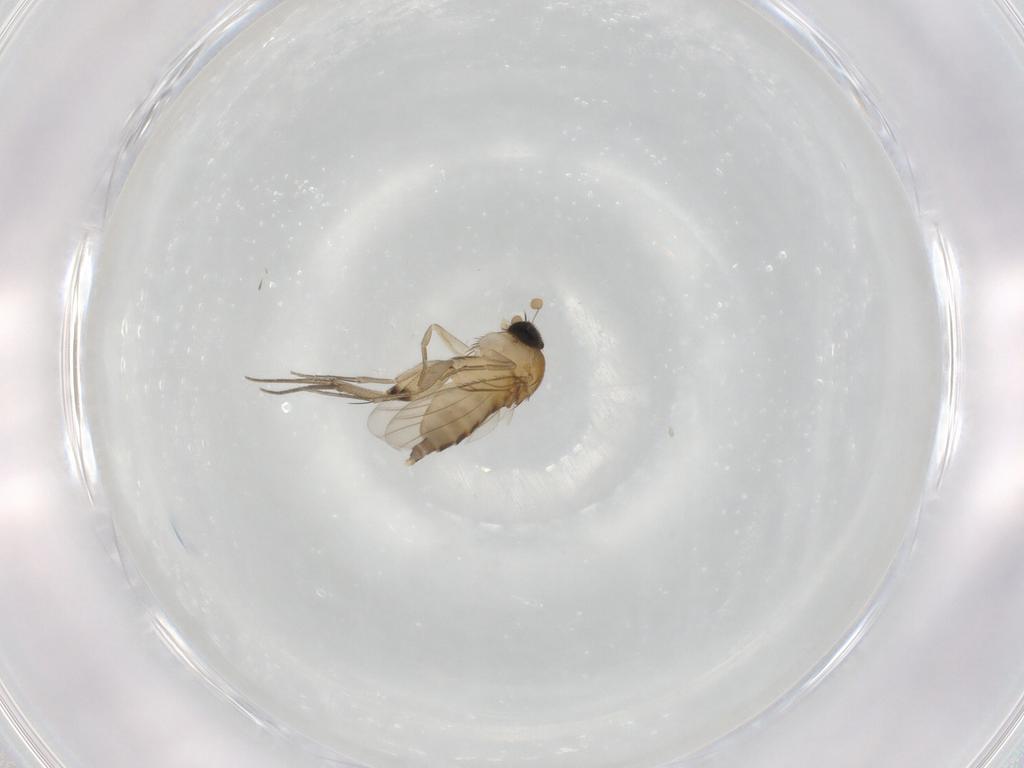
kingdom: Animalia
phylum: Arthropoda
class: Insecta
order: Diptera
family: Phoridae
